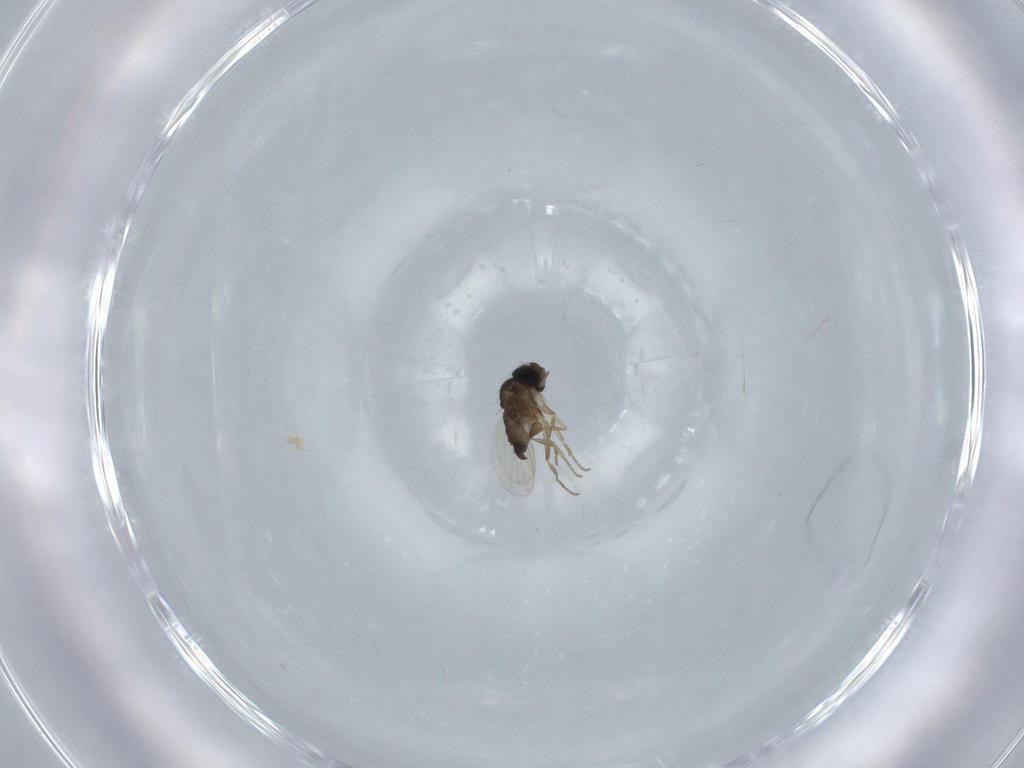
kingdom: Animalia
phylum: Arthropoda
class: Insecta
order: Diptera
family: Phoridae
